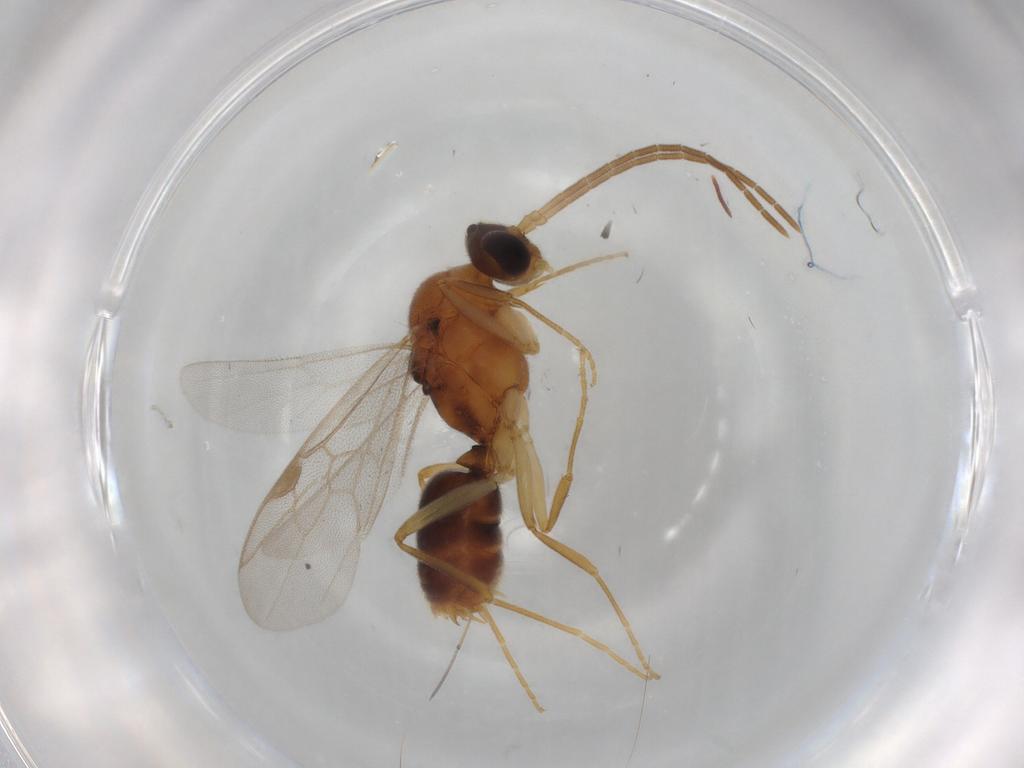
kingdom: Animalia
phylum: Arthropoda
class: Insecta
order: Hymenoptera
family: Formicidae
